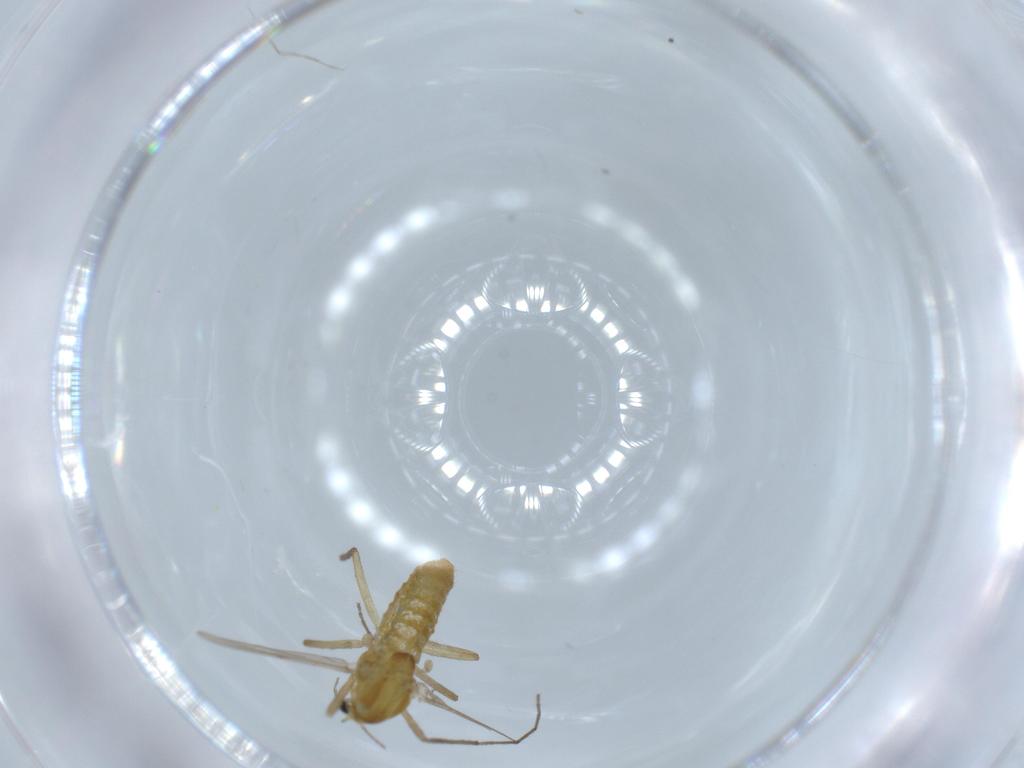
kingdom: Animalia
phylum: Arthropoda
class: Insecta
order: Diptera
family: Chironomidae
